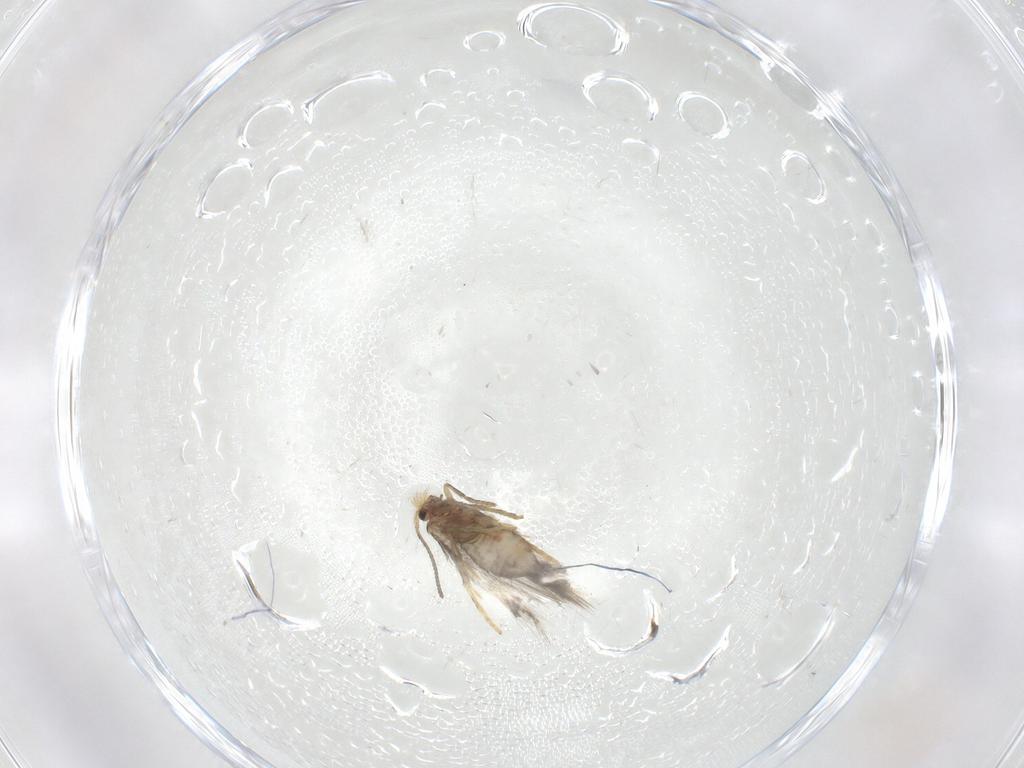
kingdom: Animalia
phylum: Arthropoda
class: Insecta
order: Lepidoptera
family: Nepticulidae
